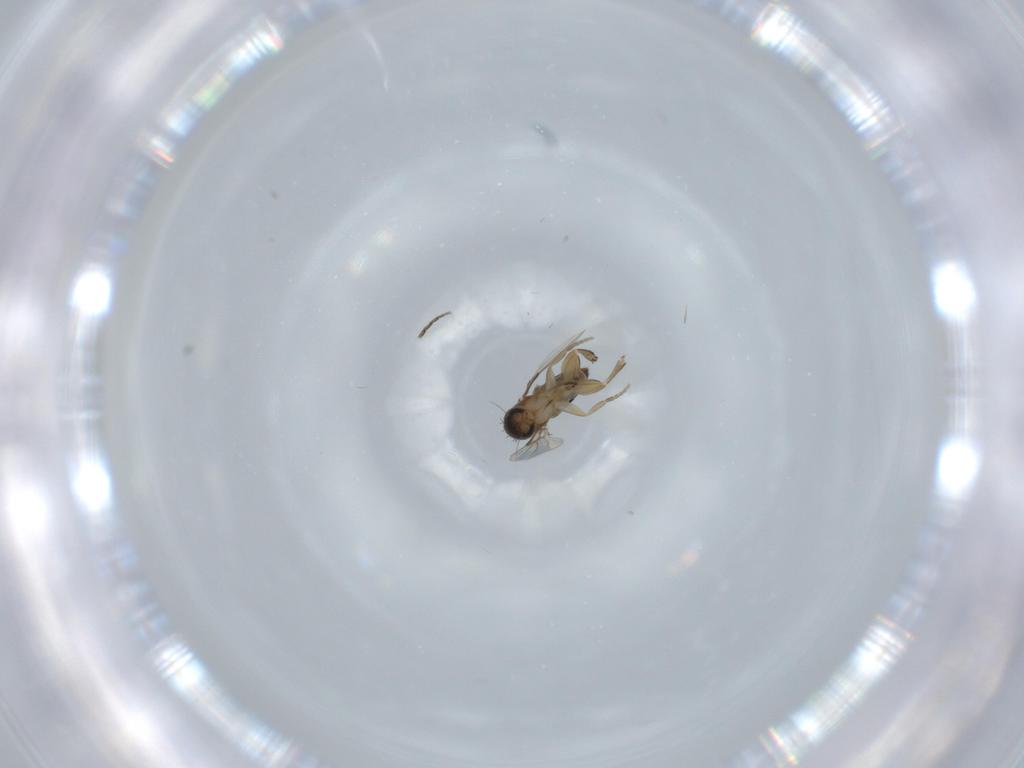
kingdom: Animalia
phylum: Arthropoda
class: Insecta
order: Diptera
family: Phoridae
